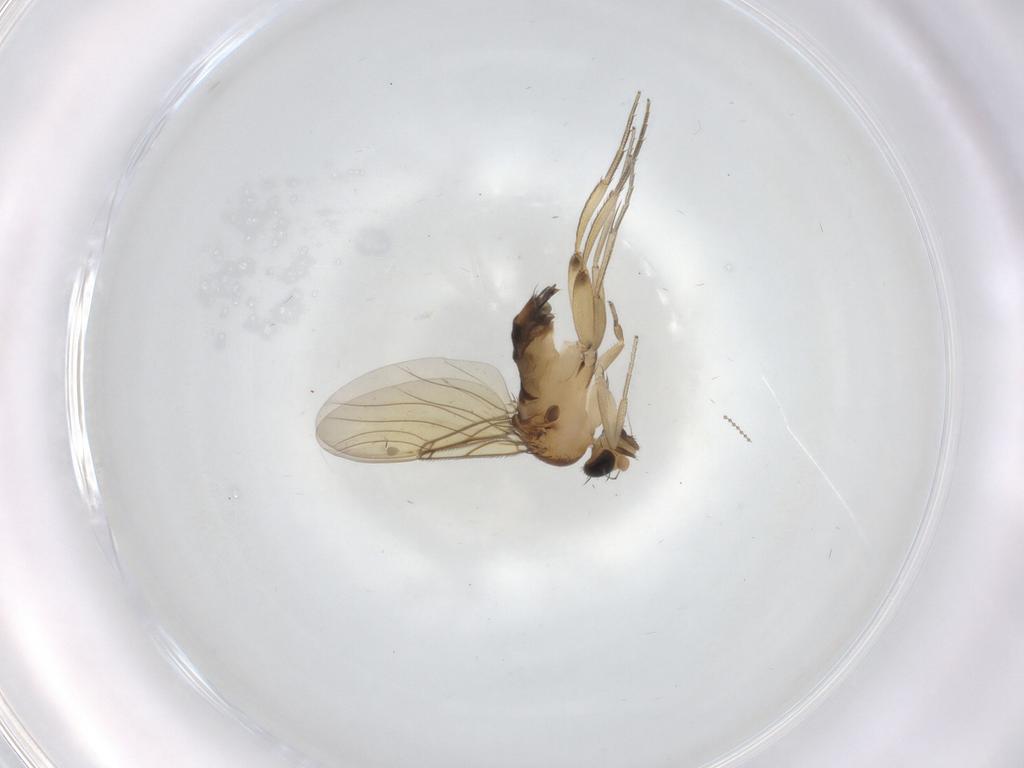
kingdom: Animalia
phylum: Arthropoda
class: Insecta
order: Diptera
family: Phoridae
